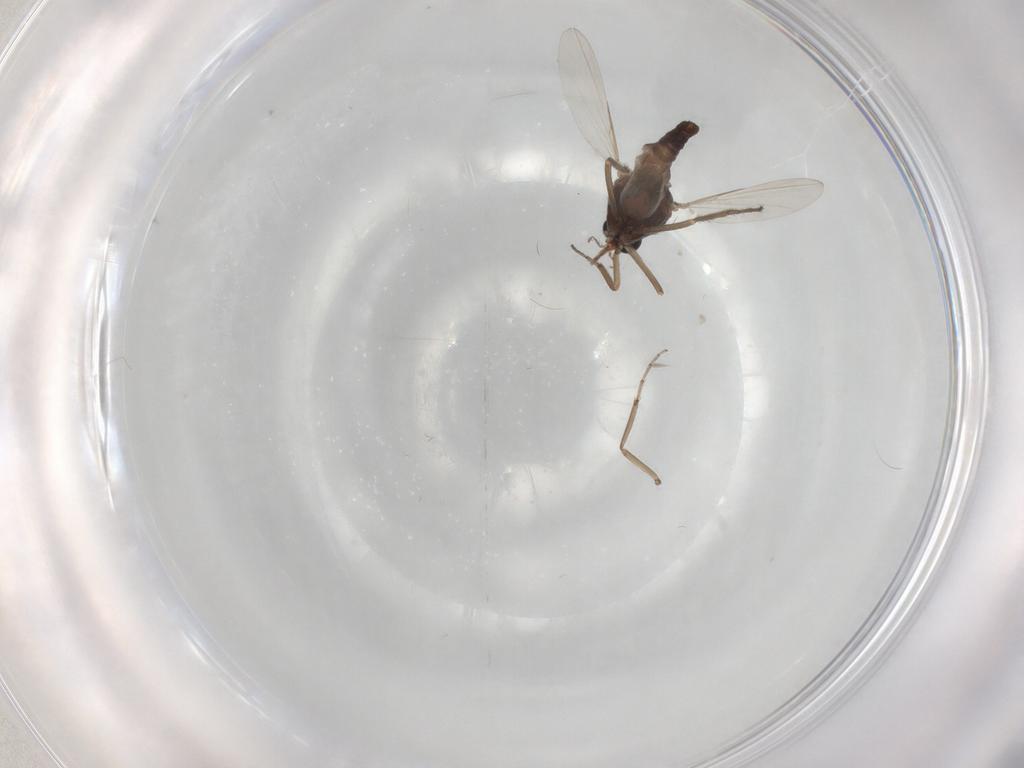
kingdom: Animalia
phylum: Arthropoda
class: Insecta
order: Diptera
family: Ceratopogonidae
